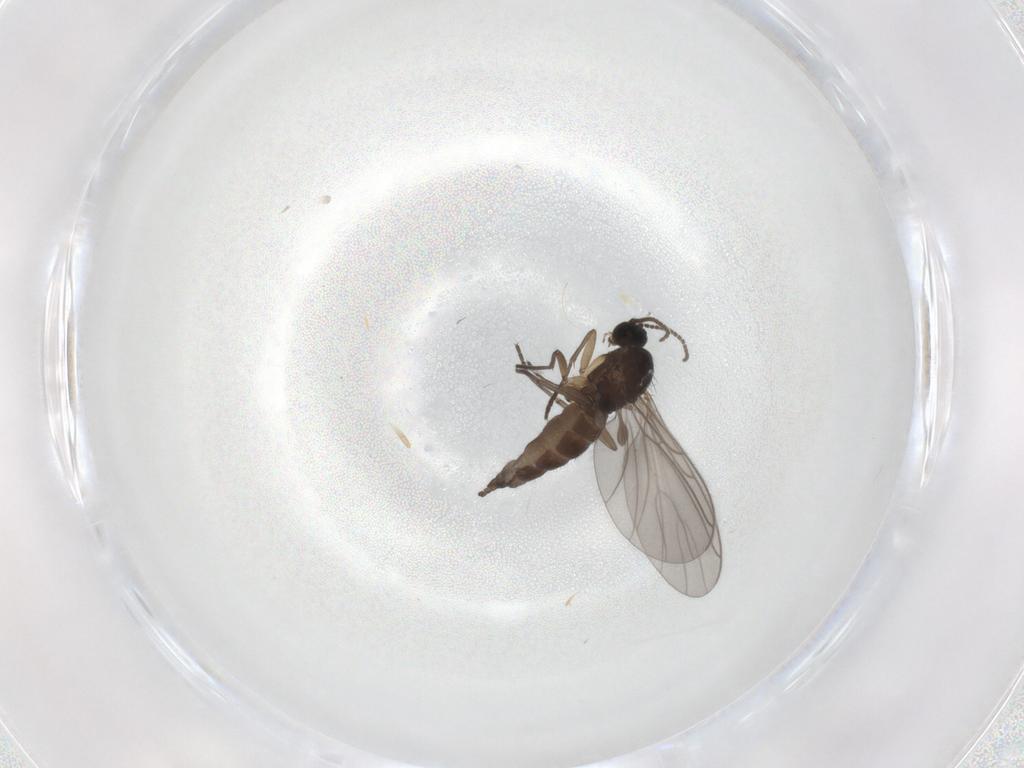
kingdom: Animalia
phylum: Arthropoda
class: Insecta
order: Diptera
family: Sciaridae
